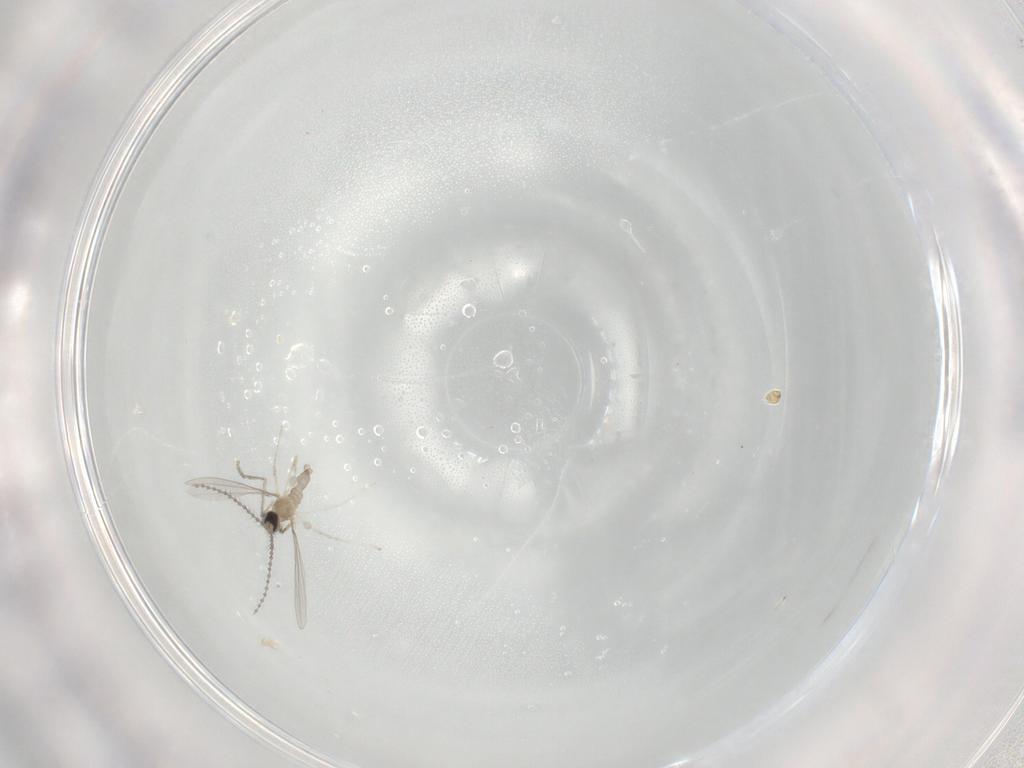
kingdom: Animalia
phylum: Arthropoda
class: Insecta
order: Diptera
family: Cecidomyiidae
